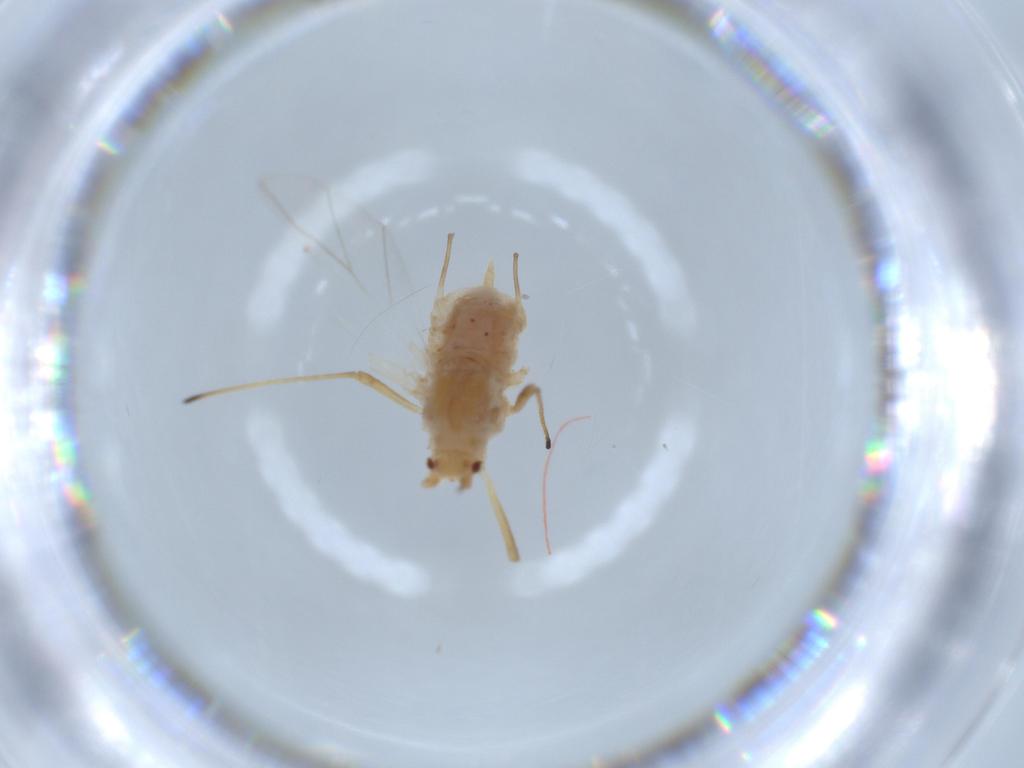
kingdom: Animalia
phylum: Arthropoda
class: Insecta
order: Hemiptera
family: Aphididae
